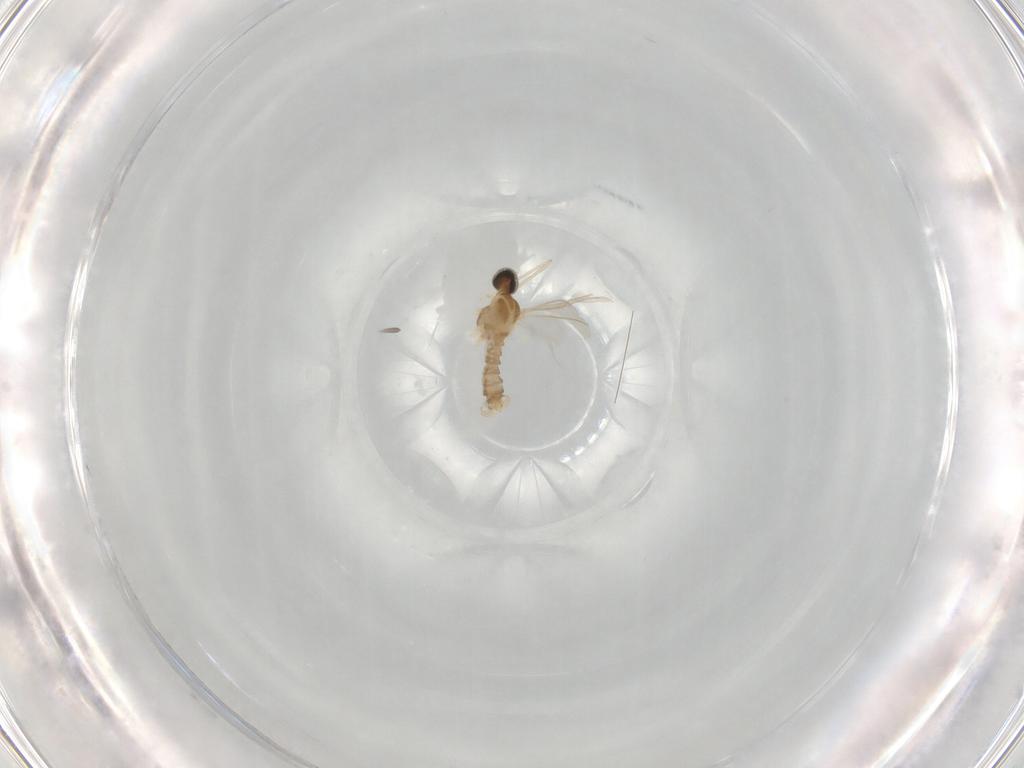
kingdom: Animalia
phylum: Arthropoda
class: Insecta
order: Diptera
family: Cecidomyiidae
